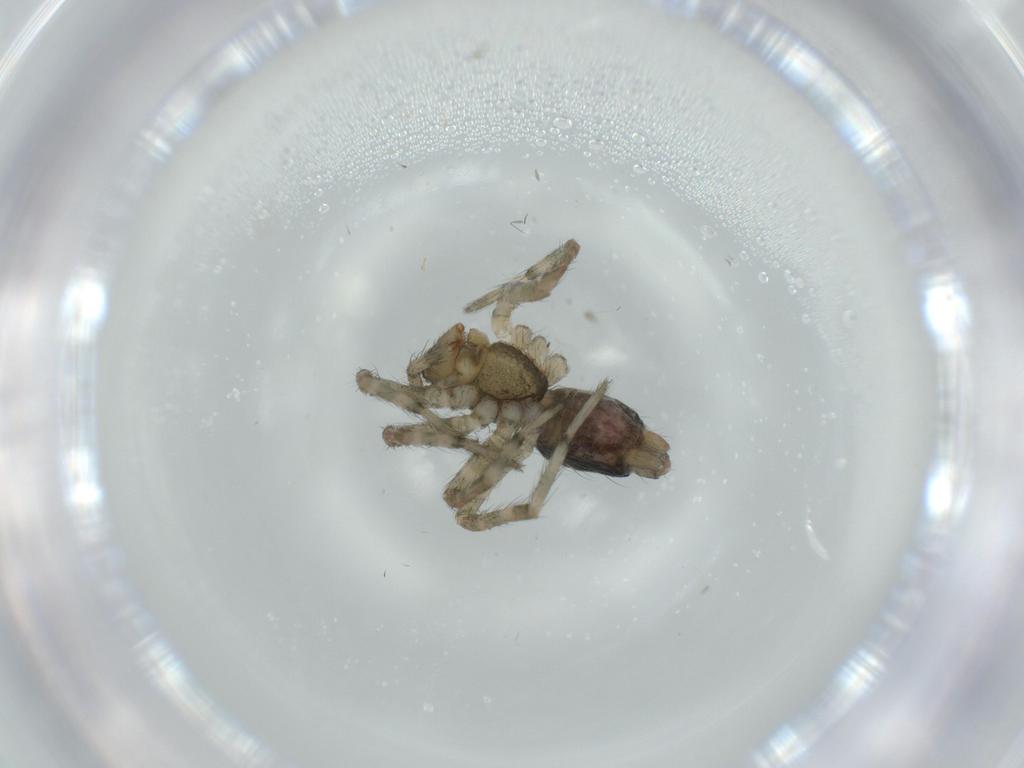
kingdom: Animalia
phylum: Arthropoda
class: Arachnida
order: Araneae
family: Agelenidae
